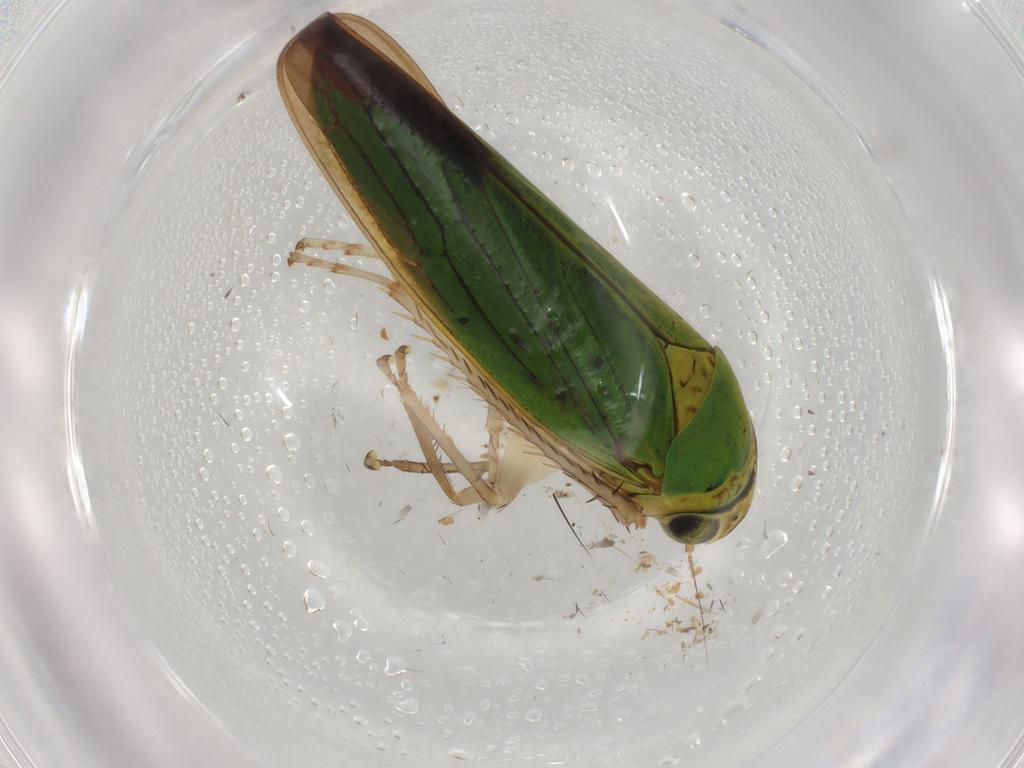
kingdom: Animalia
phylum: Arthropoda
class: Insecta
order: Hemiptera
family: Cicadellidae
